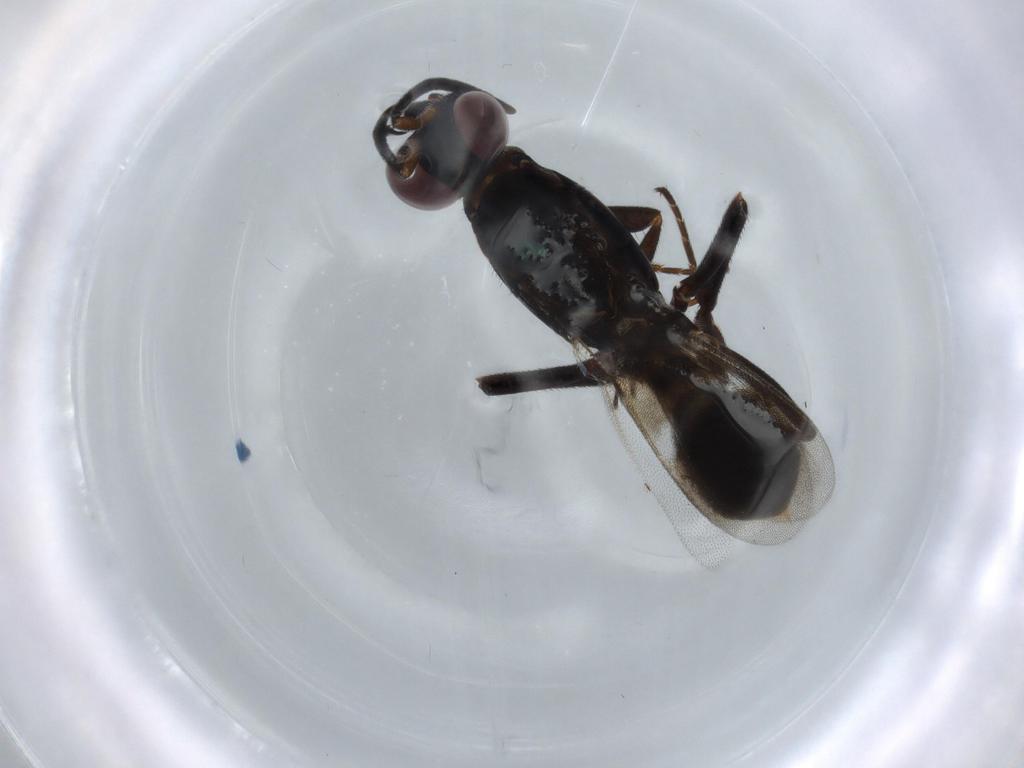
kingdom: Animalia
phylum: Arthropoda
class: Insecta
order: Hymenoptera
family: Eupelmidae
